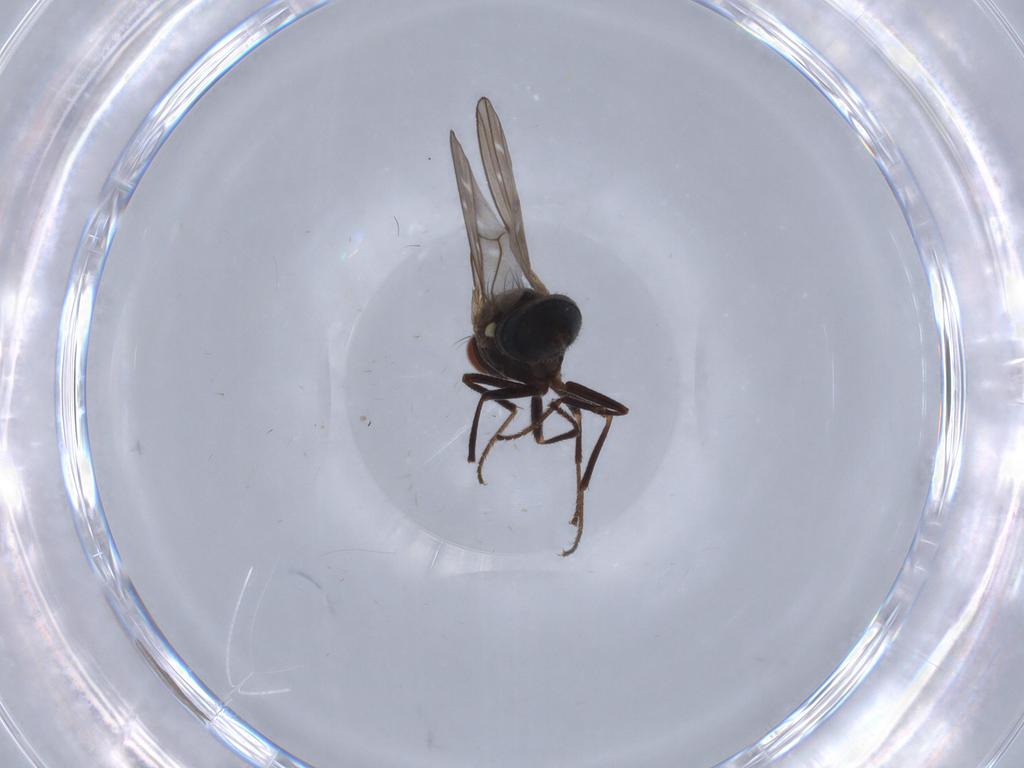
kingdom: Animalia
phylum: Arthropoda
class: Insecta
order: Diptera
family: Ephydridae
